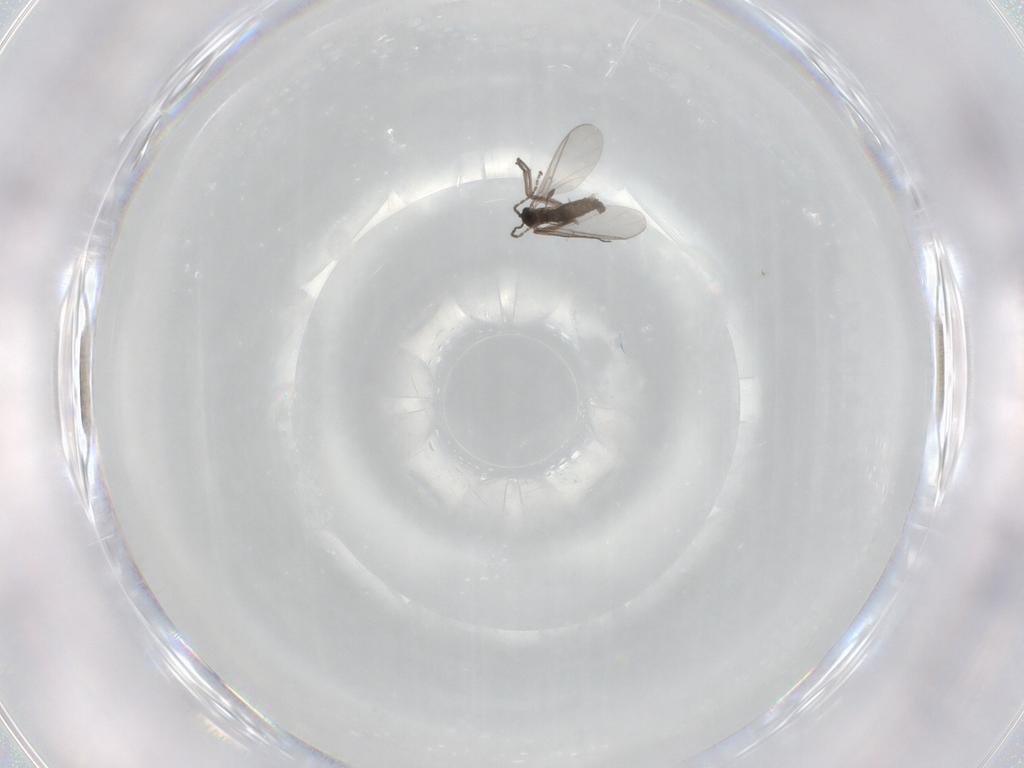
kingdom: Animalia
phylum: Arthropoda
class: Insecta
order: Diptera
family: Sciaridae
